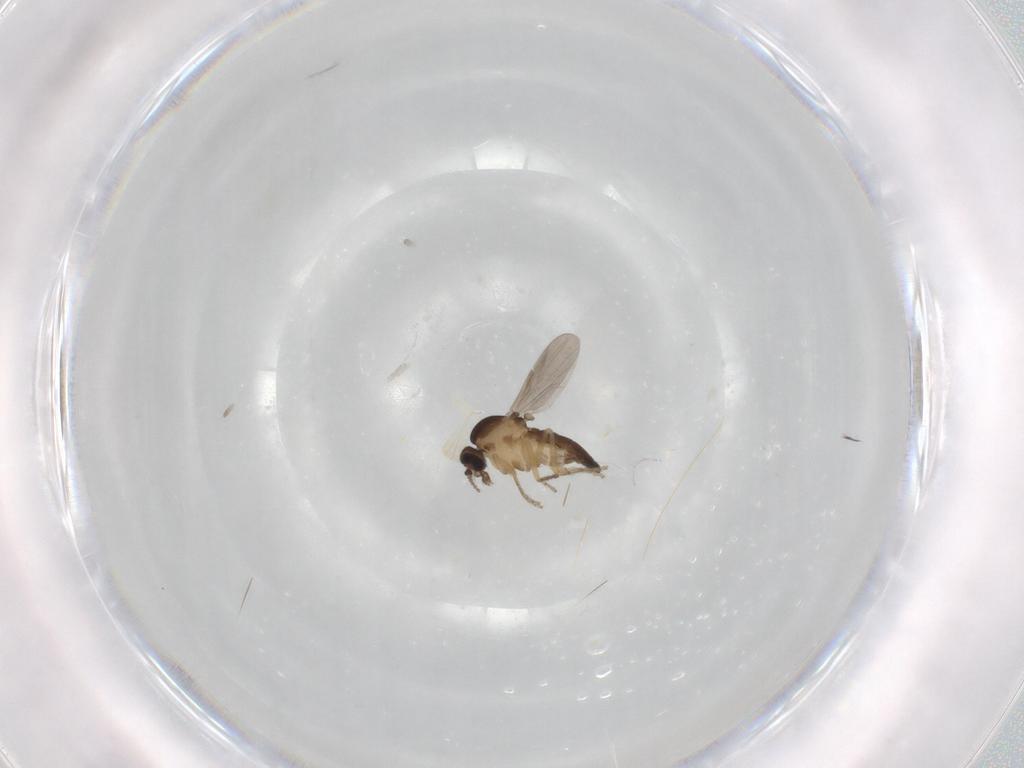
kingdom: Animalia
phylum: Arthropoda
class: Insecta
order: Diptera
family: Ceratopogonidae
